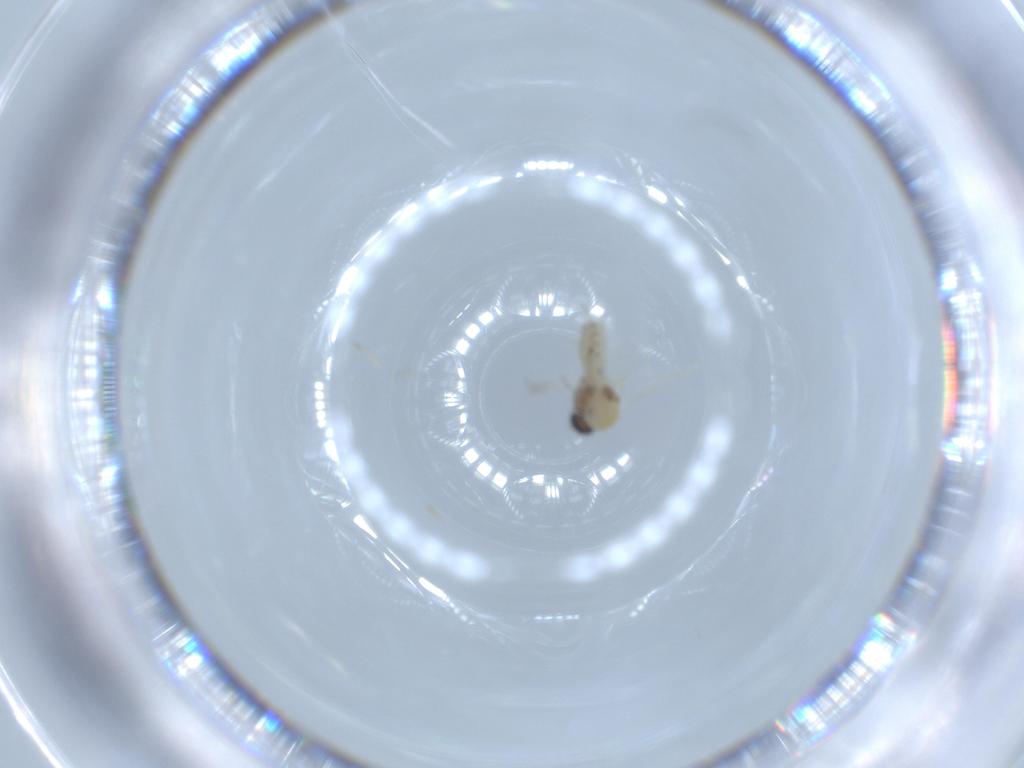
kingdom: Animalia
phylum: Arthropoda
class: Insecta
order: Diptera
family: Ceratopogonidae
